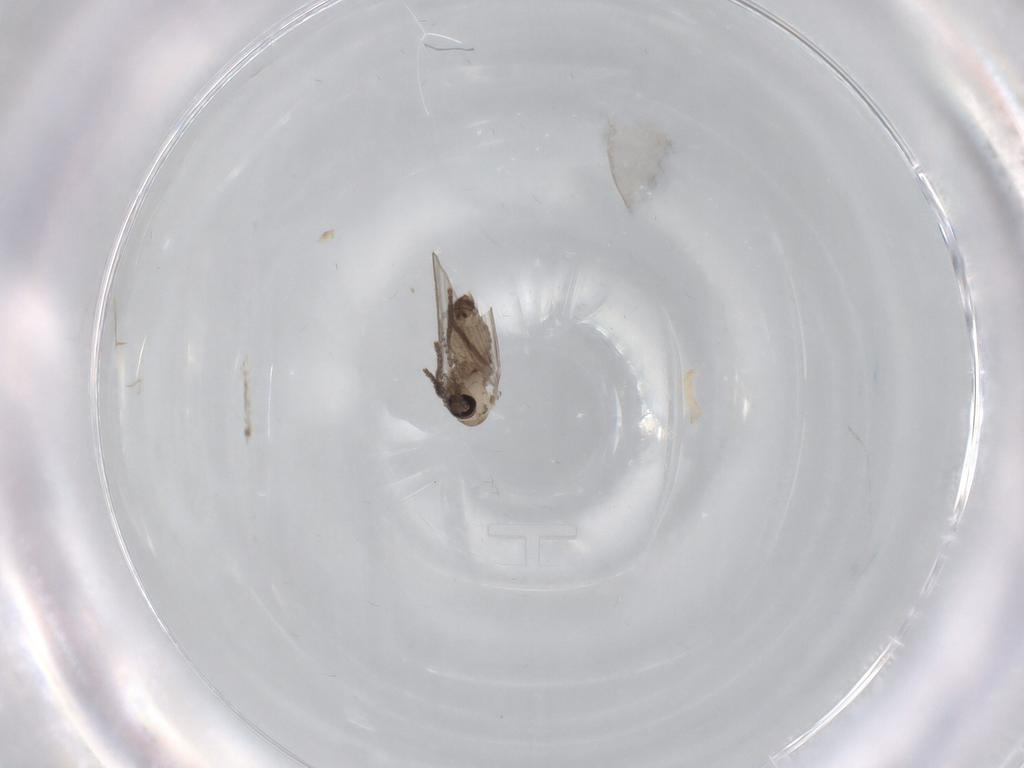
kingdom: Animalia
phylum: Arthropoda
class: Insecta
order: Diptera
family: Psychodidae
